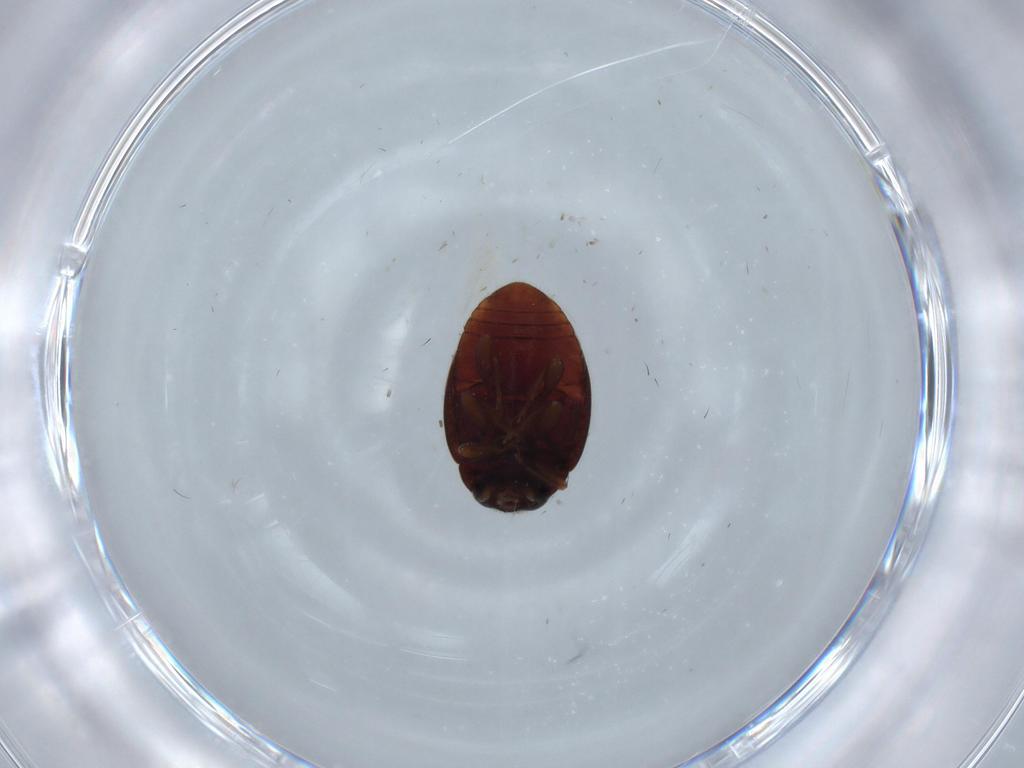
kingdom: Animalia
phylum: Arthropoda
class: Insecta
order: Coleoptera
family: Coccinellidae
